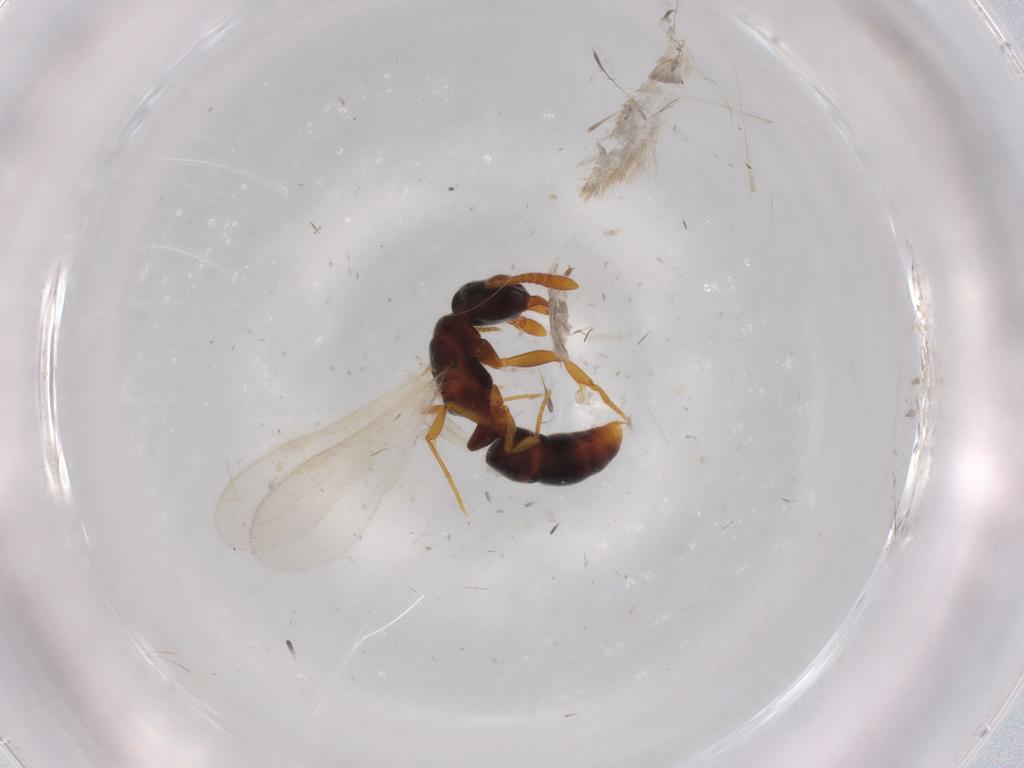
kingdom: Animalia
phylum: Arthropoda
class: Insecta
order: Hymenoptera
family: Formicidae
